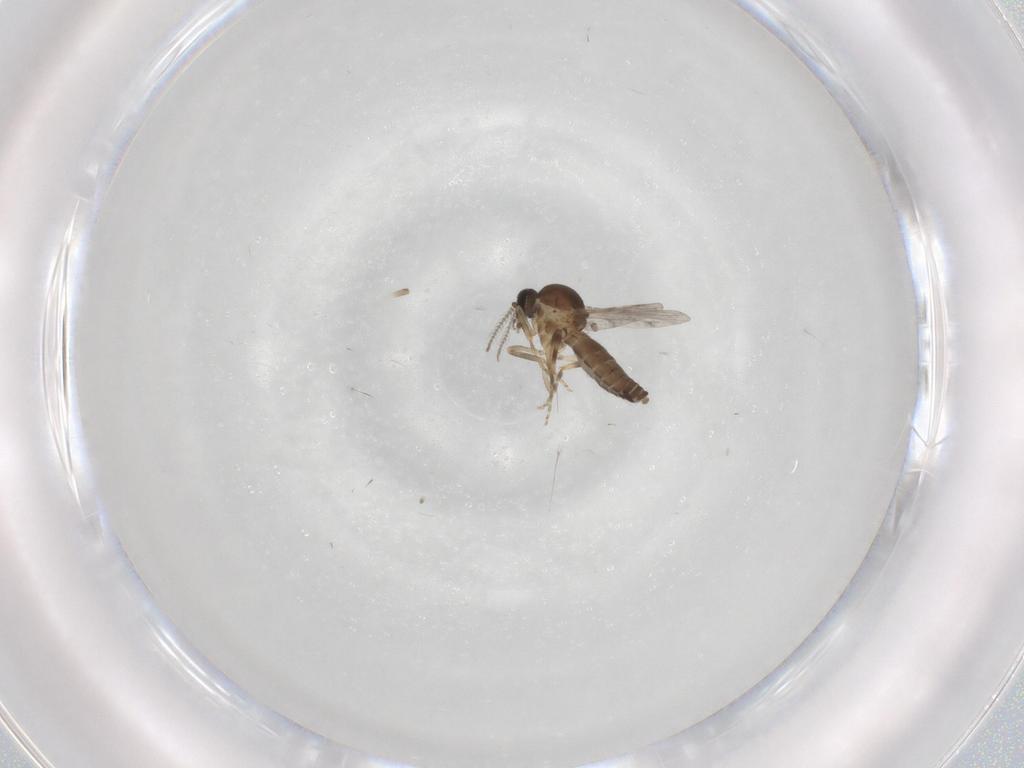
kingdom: Animalia
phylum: Arthropoda
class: Insecta
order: Diptera
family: Ceratopogonidae
